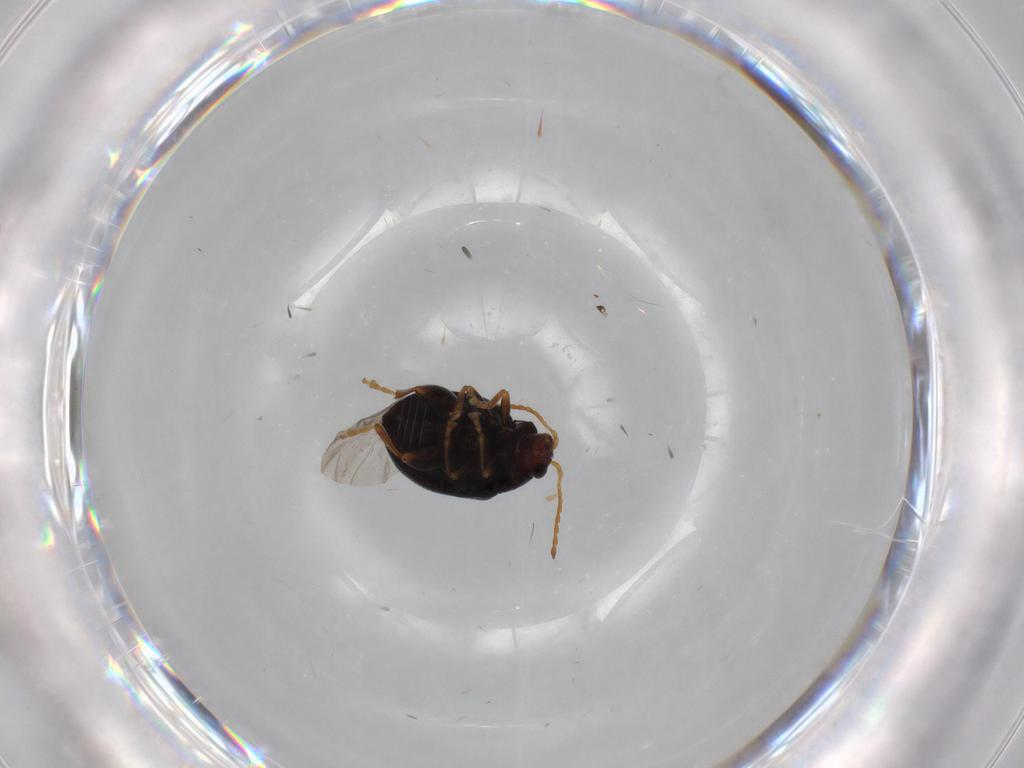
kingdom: Animalia
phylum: Arthropoda
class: Insecta
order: Coleoptera
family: Chrysomelidae
